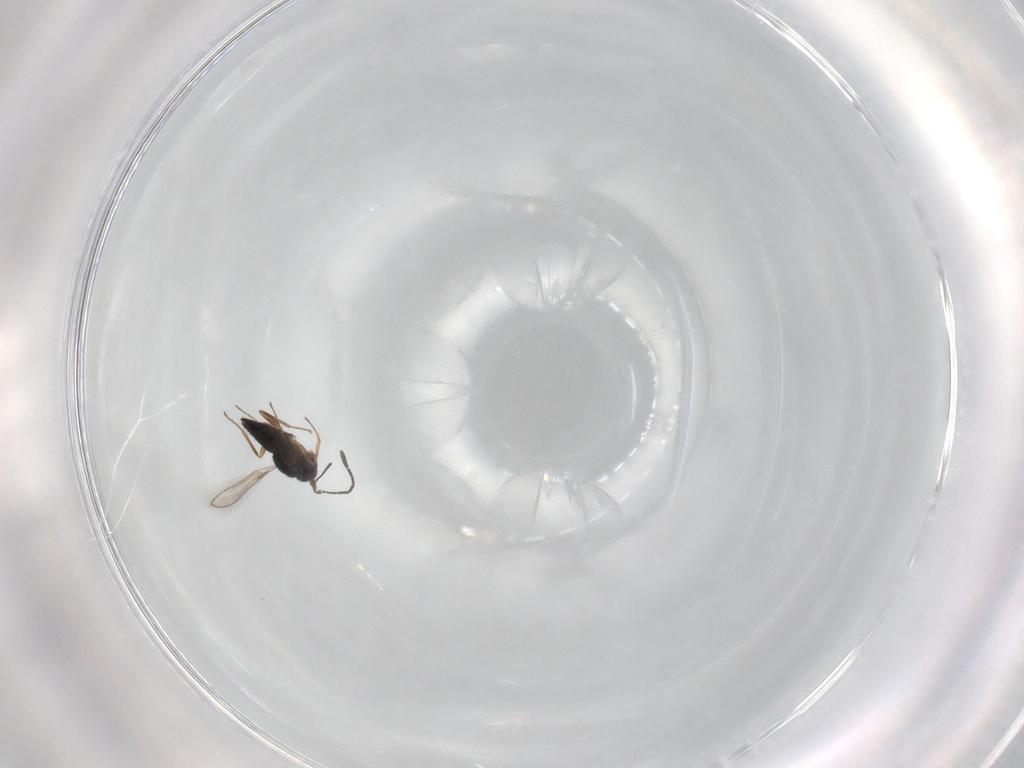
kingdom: Animalia
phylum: Arthropoda
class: Insecta
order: Hymenoptera
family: Mymaridae
